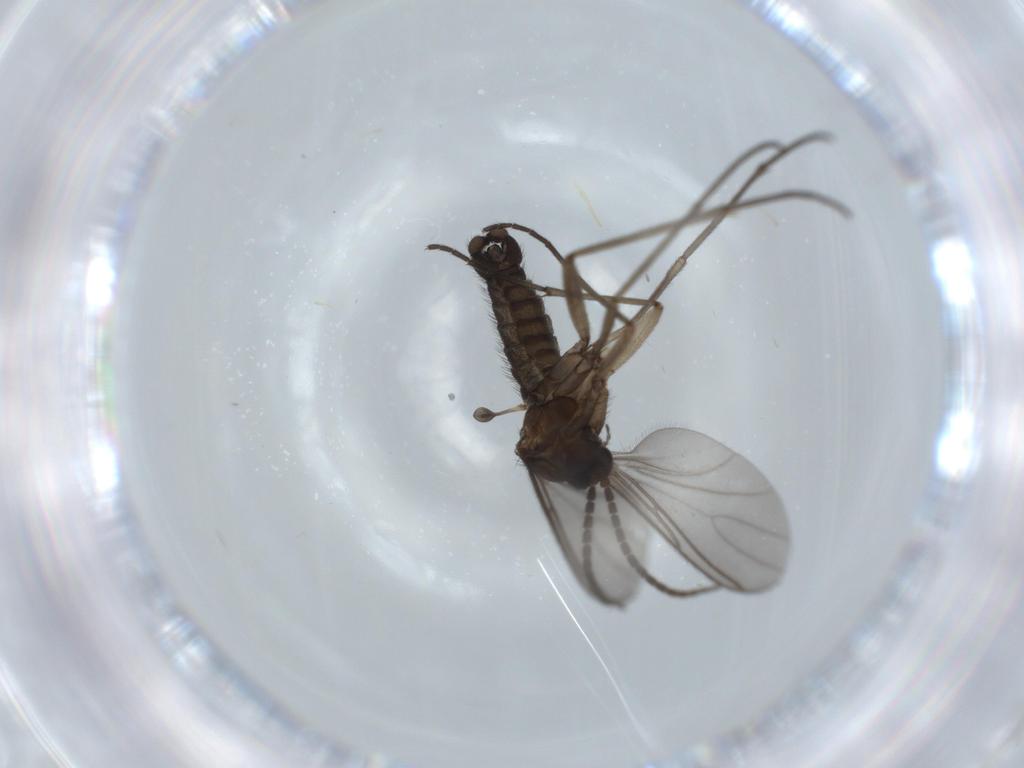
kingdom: Animalia
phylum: Arthropoda
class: Insecta
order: Diptera
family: Sciaridae
